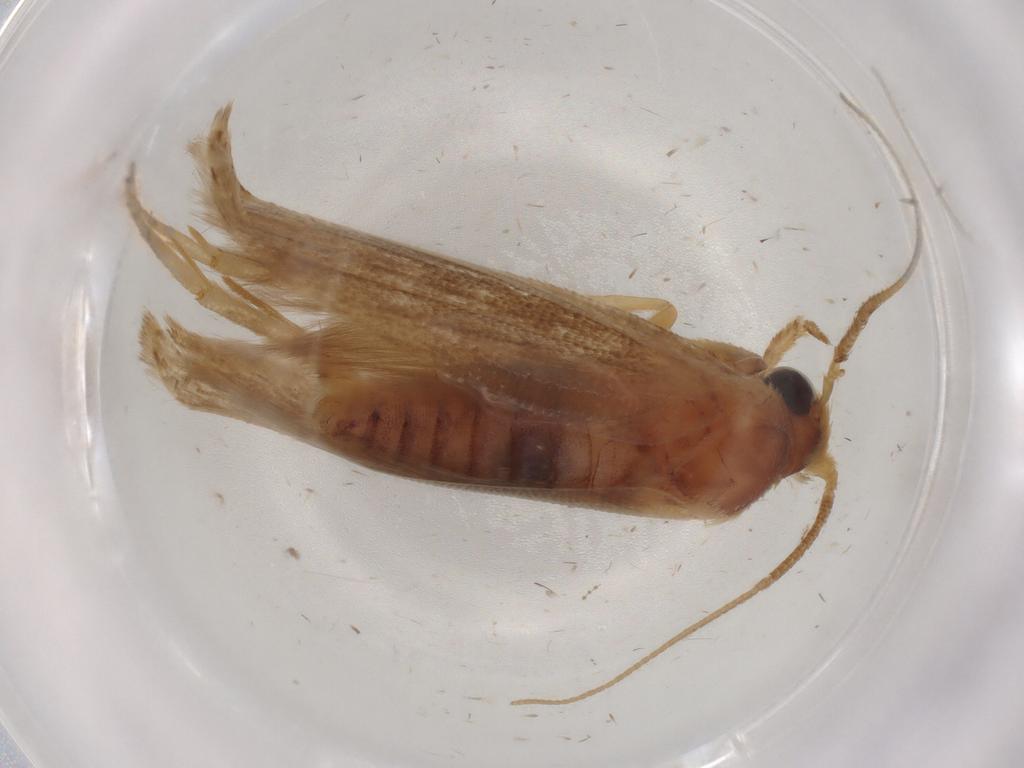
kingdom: Animalia
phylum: Arthropoda
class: Insecta
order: Lepidoptera
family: Blastobasidae
